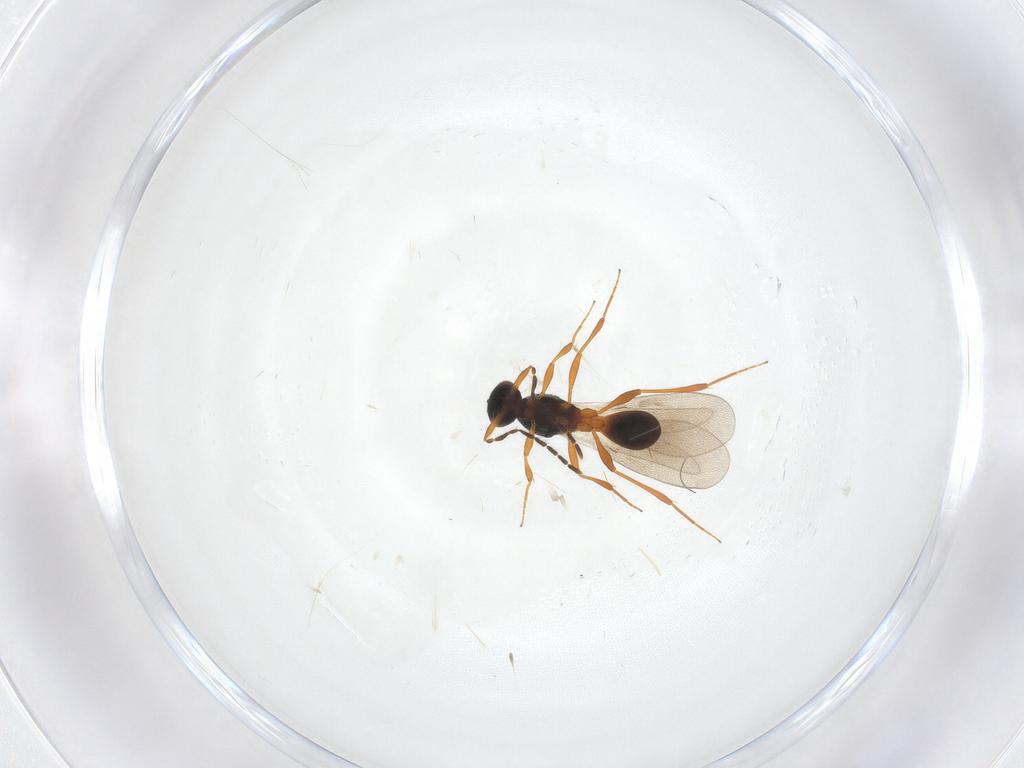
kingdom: Animalia
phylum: Arthropoda
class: Insecta
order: Hymenoptera
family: Platygastridae
